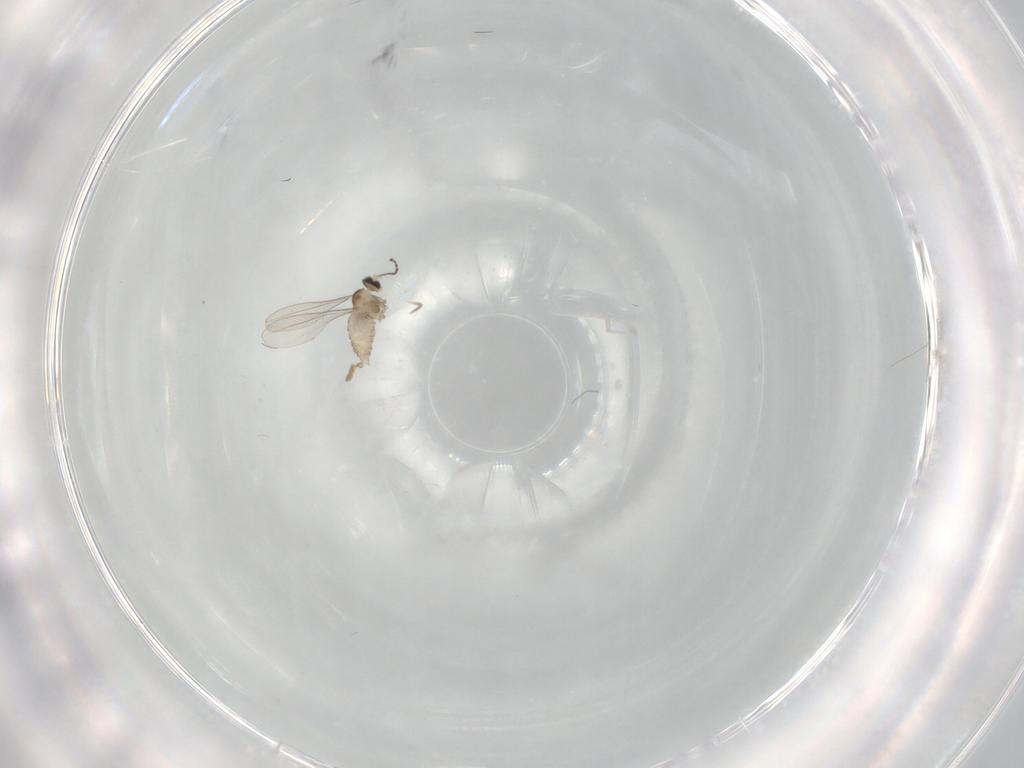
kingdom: Animalia
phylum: Arthropoda
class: Insecta
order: Diptera
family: Cecidomyiidae
